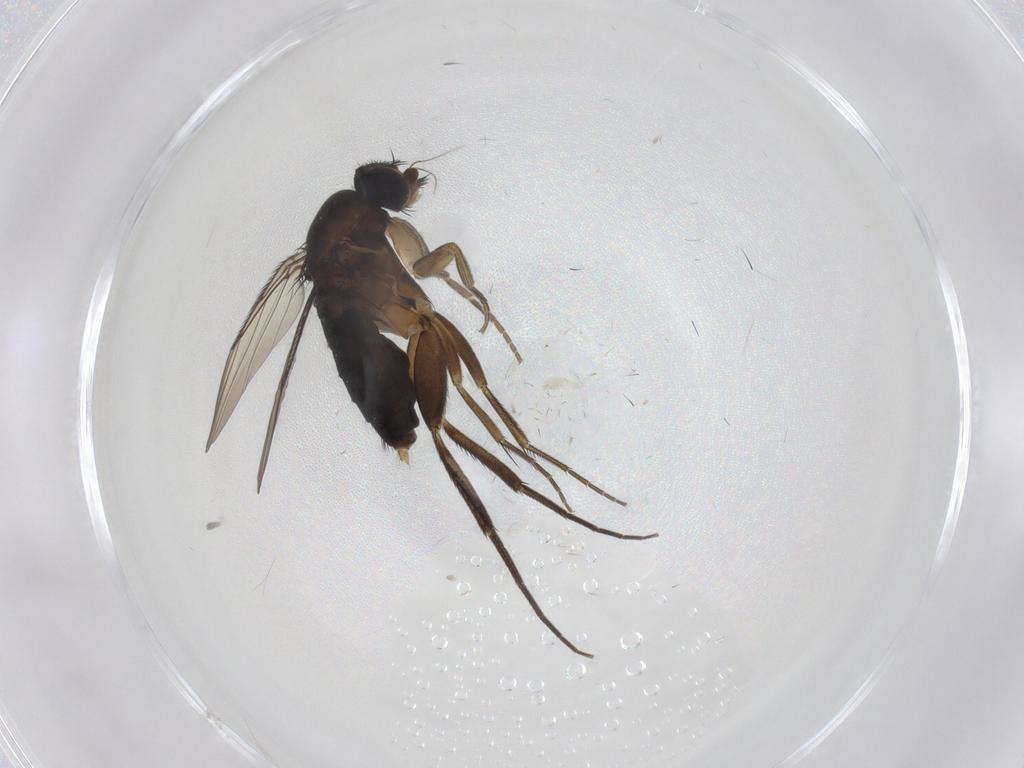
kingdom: Animalia
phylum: Arthropoda
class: Insecta
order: Diptera
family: Phoridae
